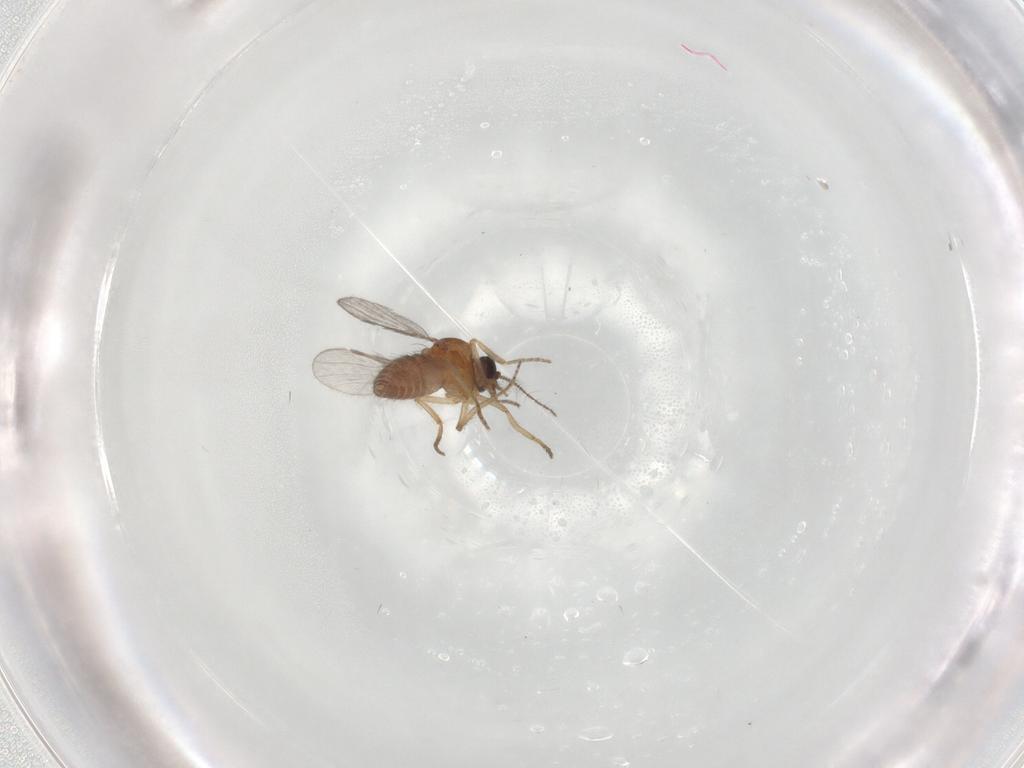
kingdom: Animalia
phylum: Arthropoda
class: Insecta
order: Diptera
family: Ceratopogonidae
